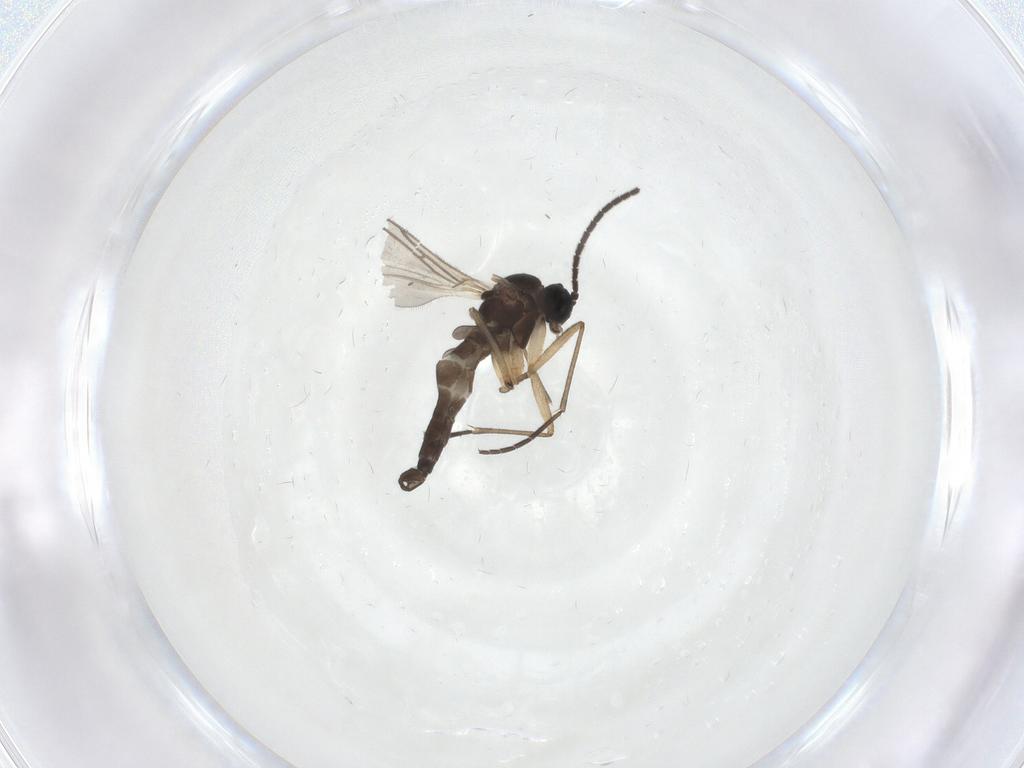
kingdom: Animalia
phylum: Arthropoda
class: Insecta
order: Diptera
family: Sciaridae
